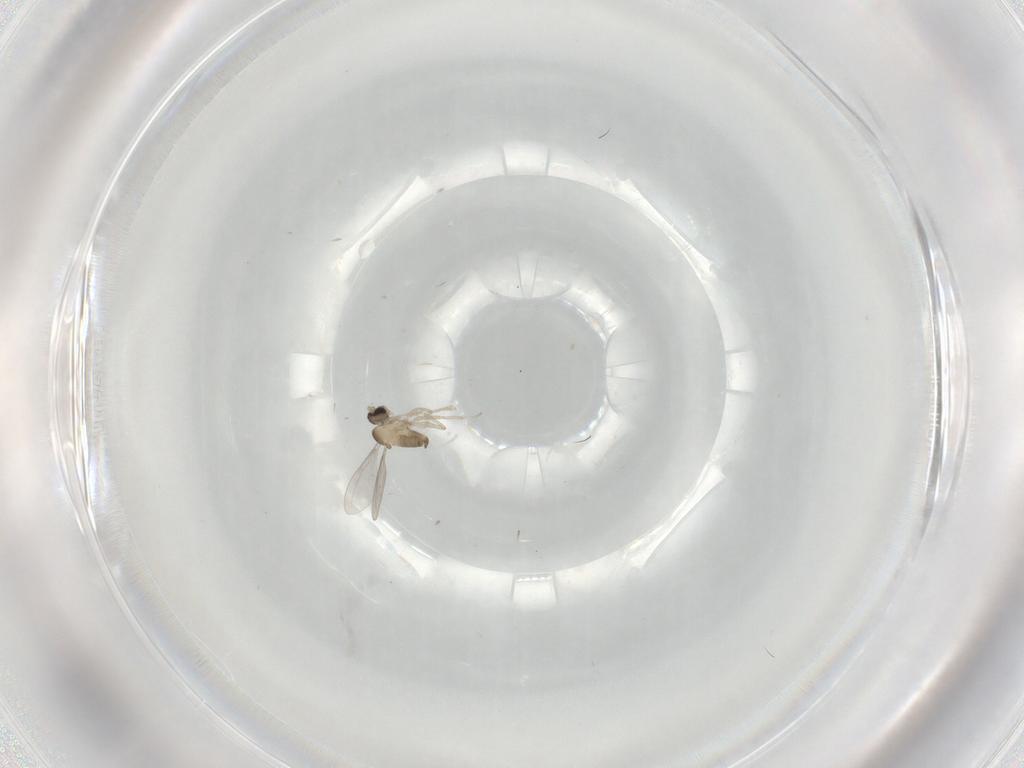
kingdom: Animalia
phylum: Arthropoda
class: Insecta
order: Diptera
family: Cecidomyiidae
